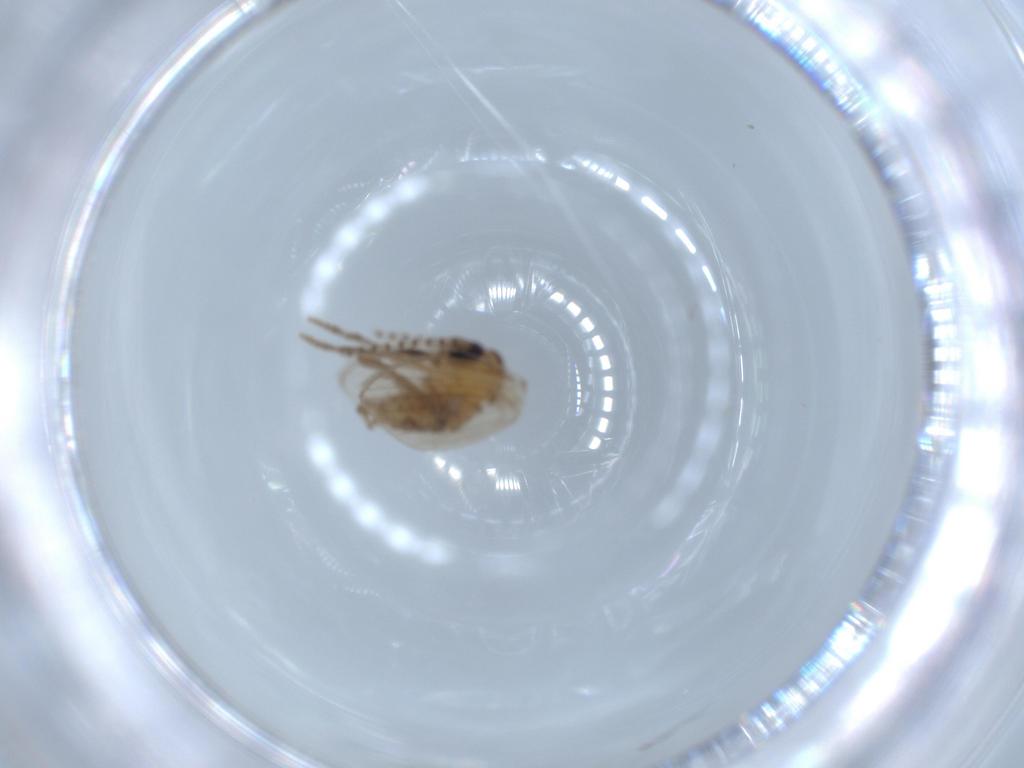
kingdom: Animalia
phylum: Arthropoda
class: Insecta
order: Diptera
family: Psychodidae
